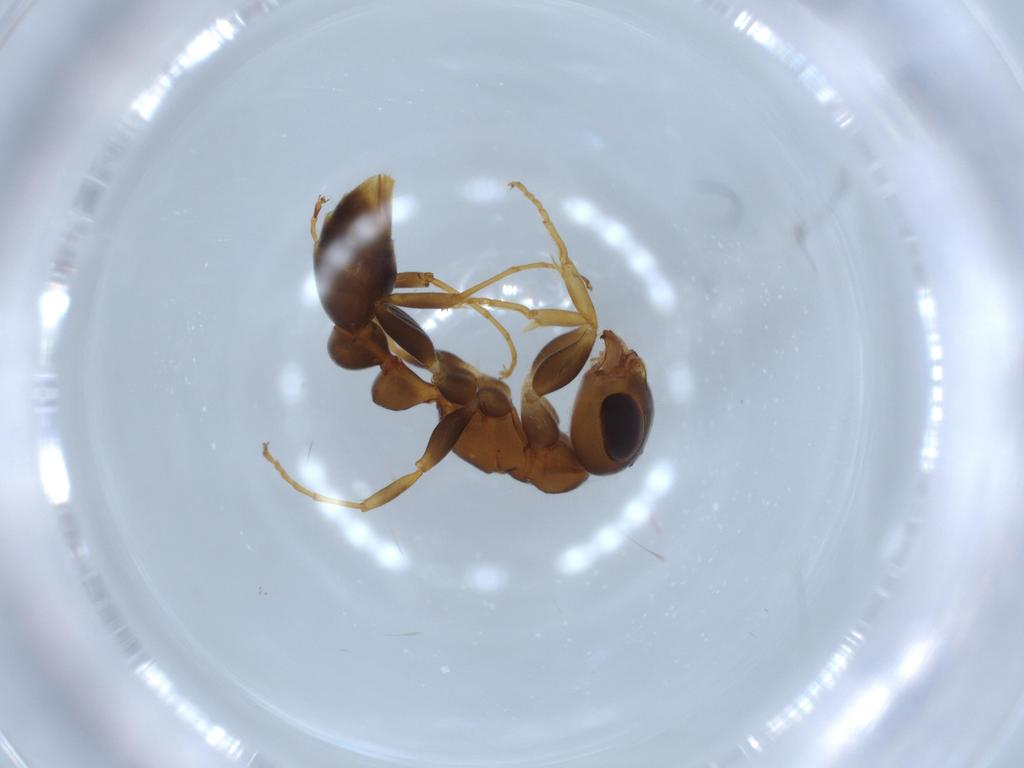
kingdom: Animalia
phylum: Arthropoda
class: Insecta
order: Hymenoptera
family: Formicidae
